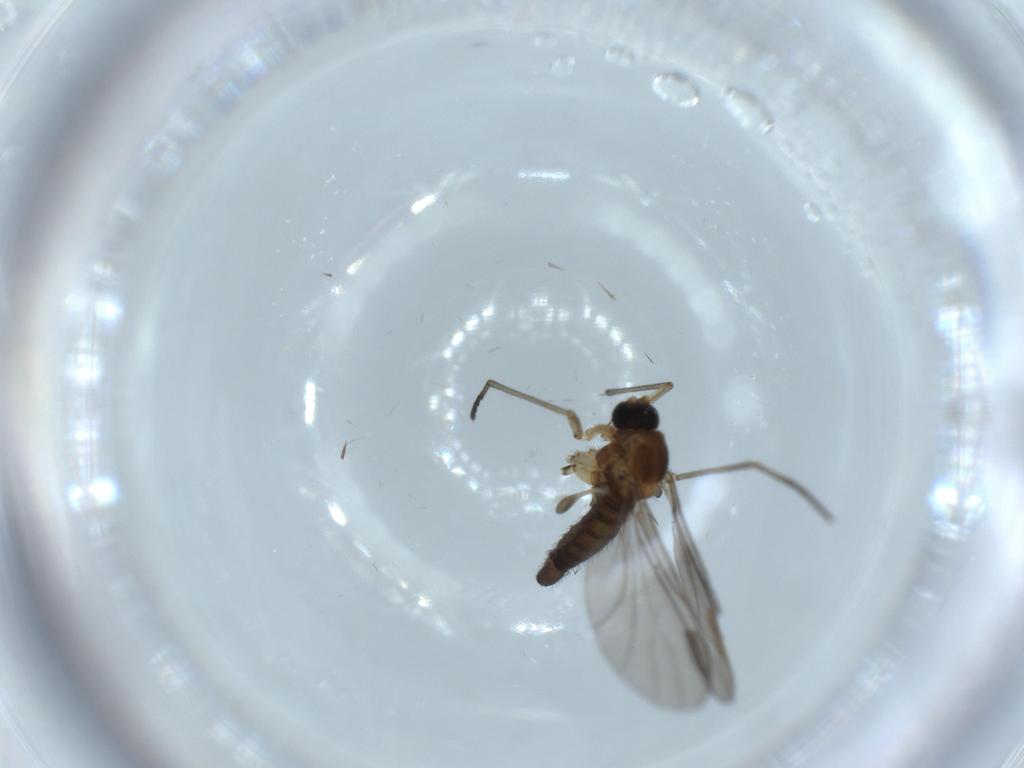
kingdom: Animalia
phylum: Arthropoda
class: Insecta
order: Diptera
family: Sciaridae
